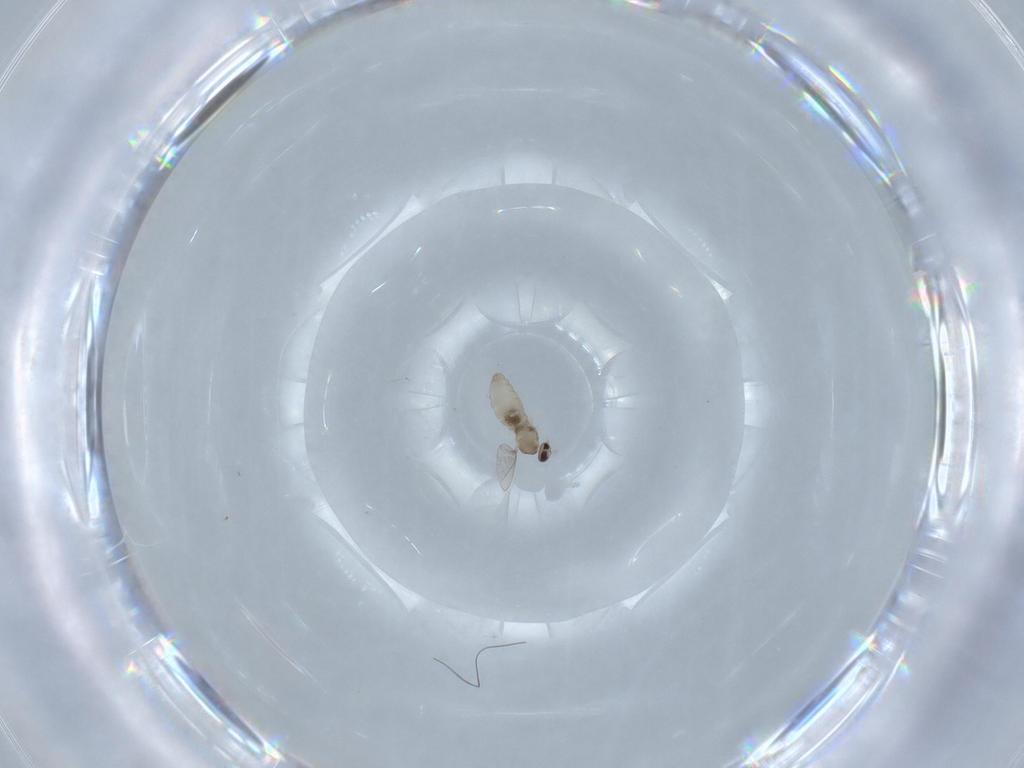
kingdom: Animalia
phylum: Arthropoda
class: Insecta
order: Diptera
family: Cecidomyiidae
